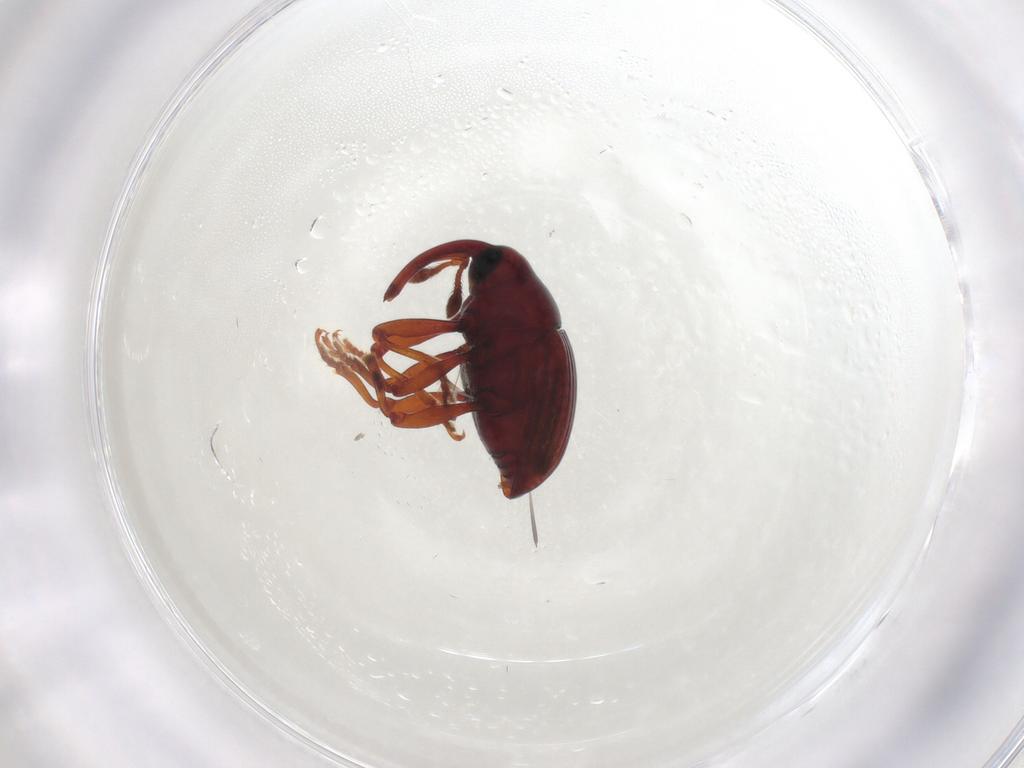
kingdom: Animalia
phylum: Arthropoda
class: Insecta
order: Coleoptera
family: Curculionidae
